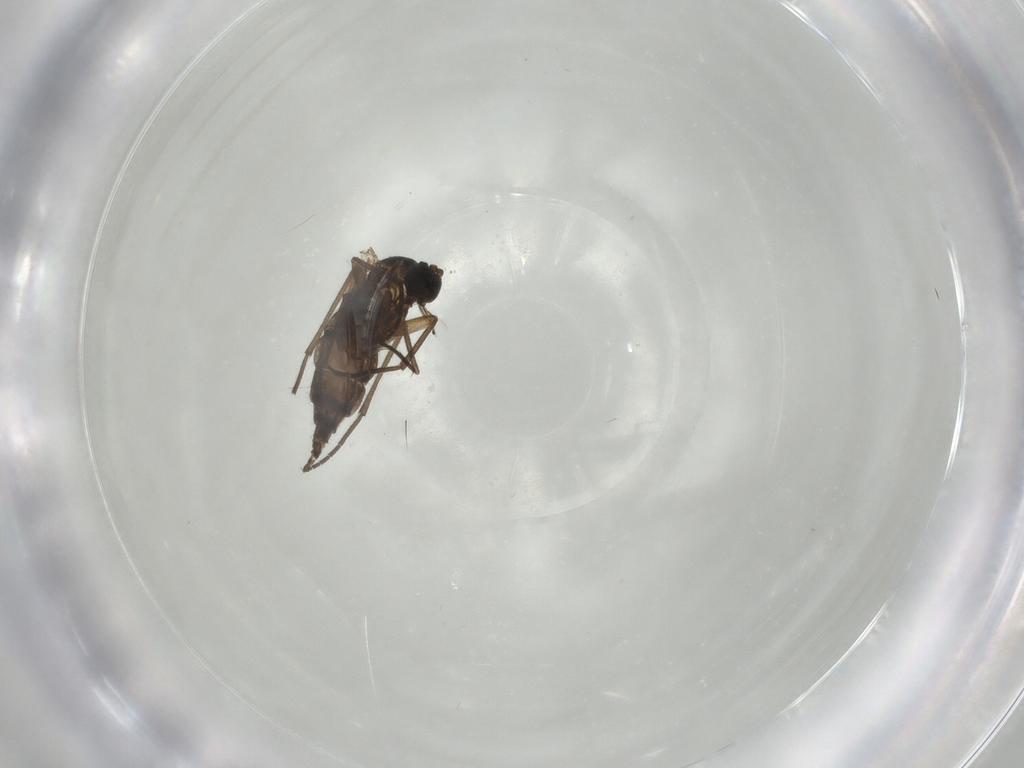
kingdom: Animalia
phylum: Arthropoda
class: Insecta
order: Diptera
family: Sciaridae
